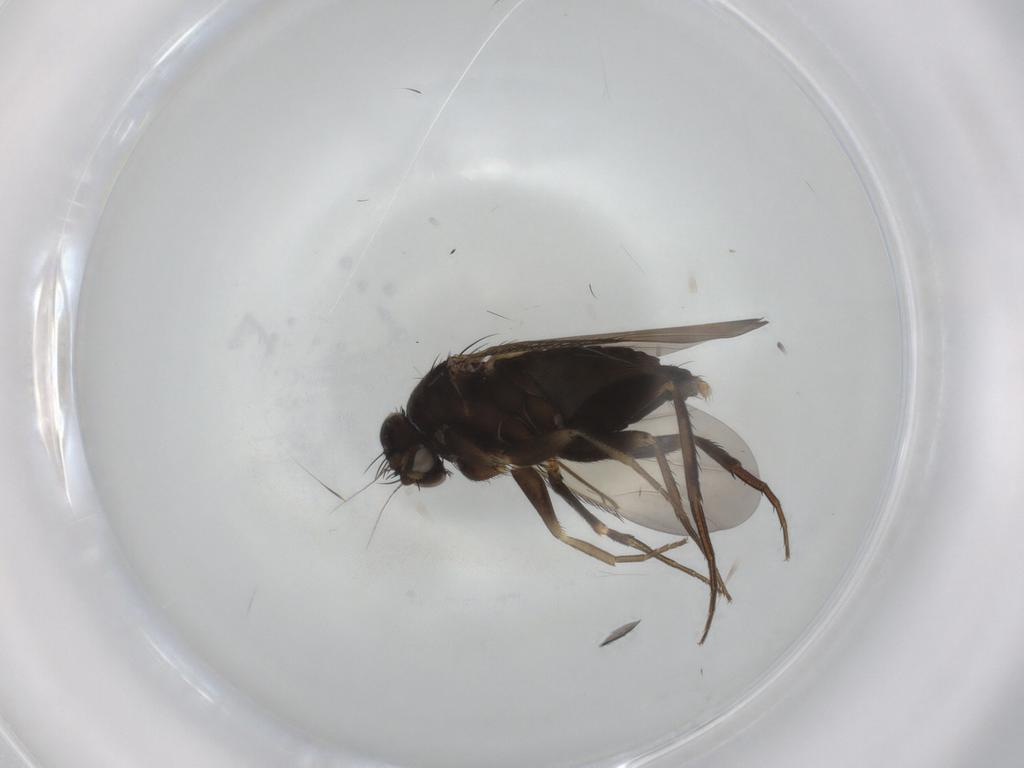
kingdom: Animalia
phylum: Arthropoda
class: Insecta
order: Diptera
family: Phoridae
